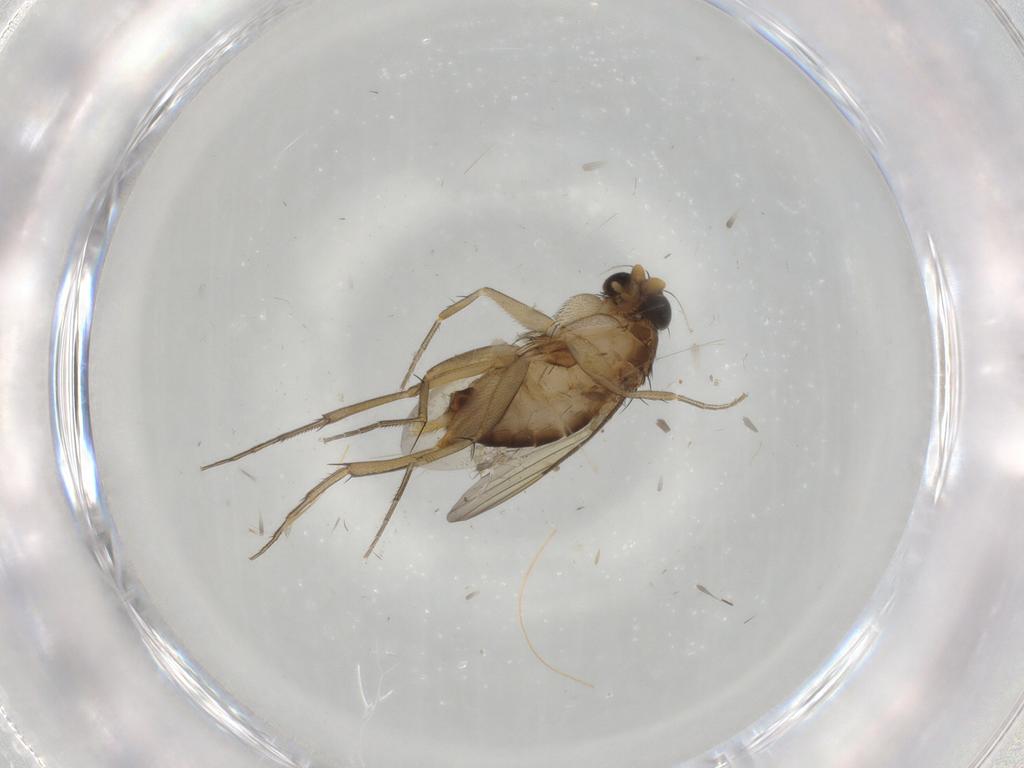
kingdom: Animalia
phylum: Arthropoda
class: Insecta
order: Diptera
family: Phoridae
